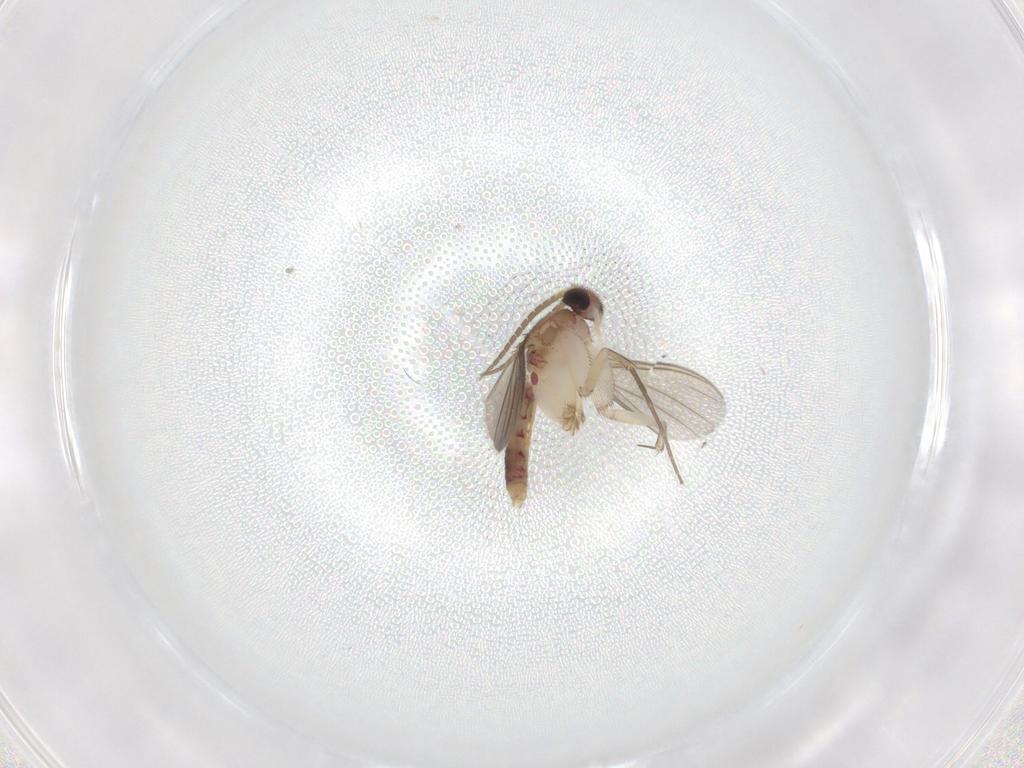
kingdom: Animalia
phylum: Arthropoda
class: Insecta
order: Diptera
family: Mycetophilidae
